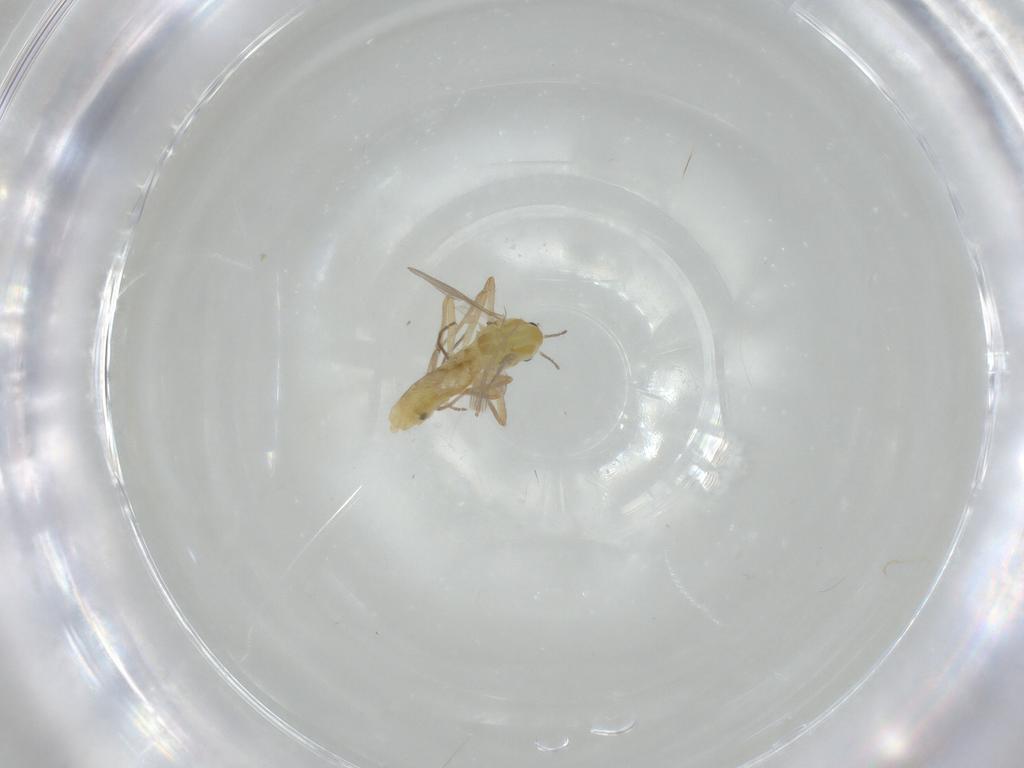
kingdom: Animalia
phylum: Arthropoda
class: Insecta
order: Diptera
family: Chironomidae
